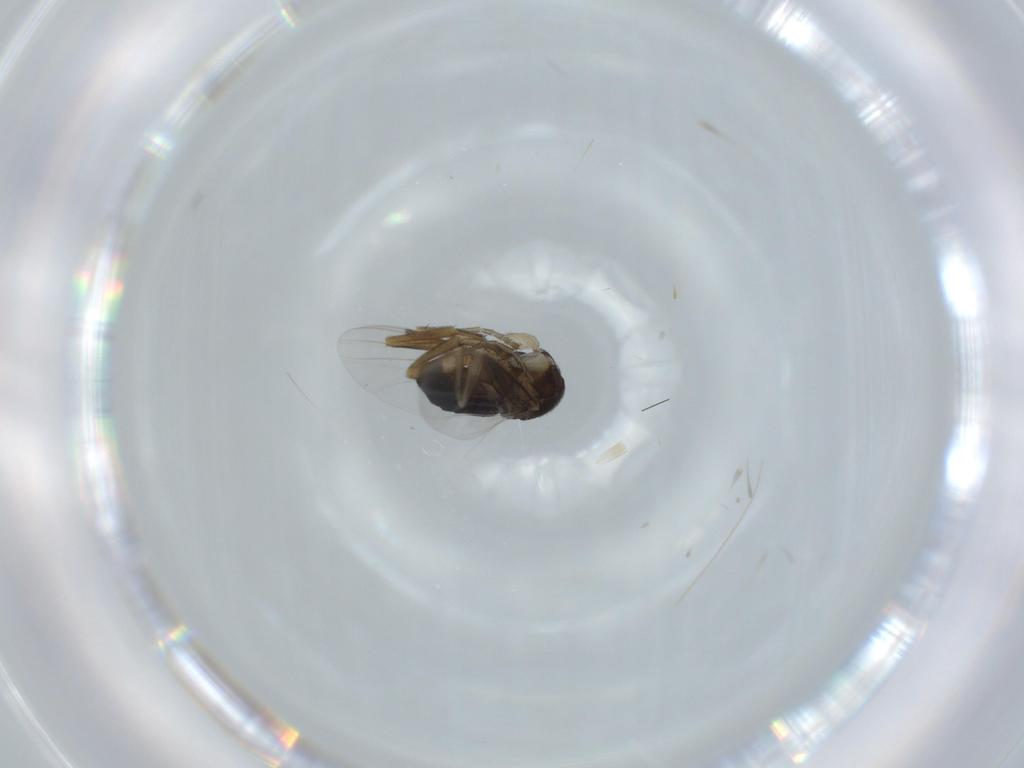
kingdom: Animalia
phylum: Arthropoda
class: Insecta
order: Diptera
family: Phoridae
